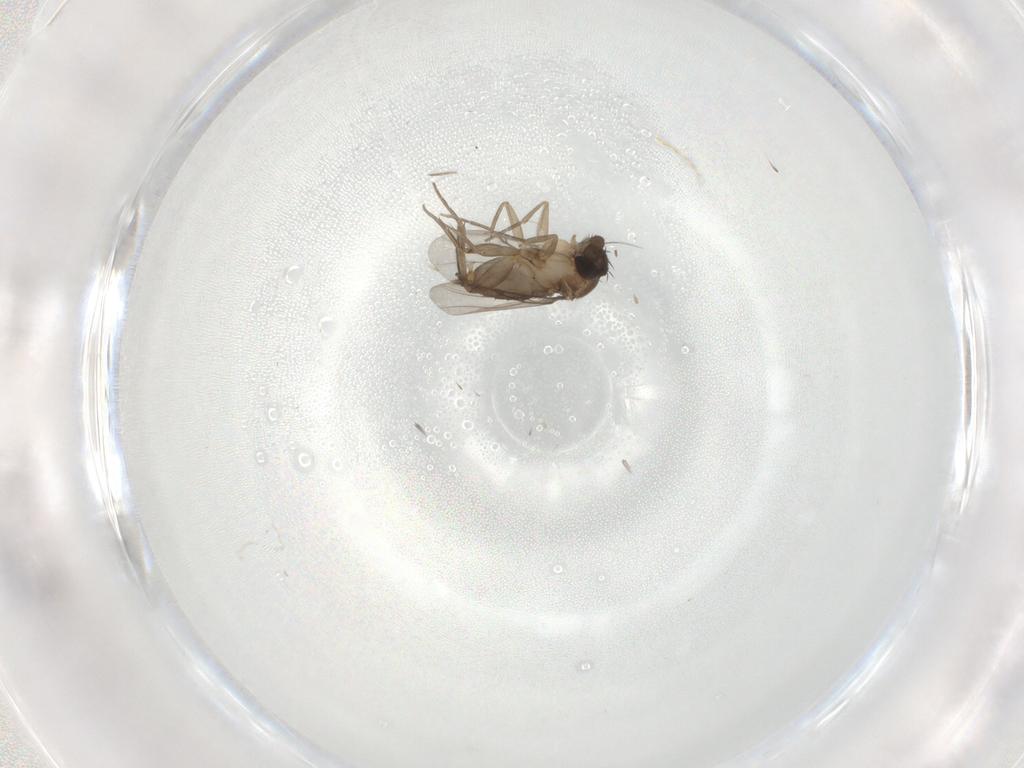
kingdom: Animalia
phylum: Arthropoda
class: Insecta
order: Diptera
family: Phoridae
